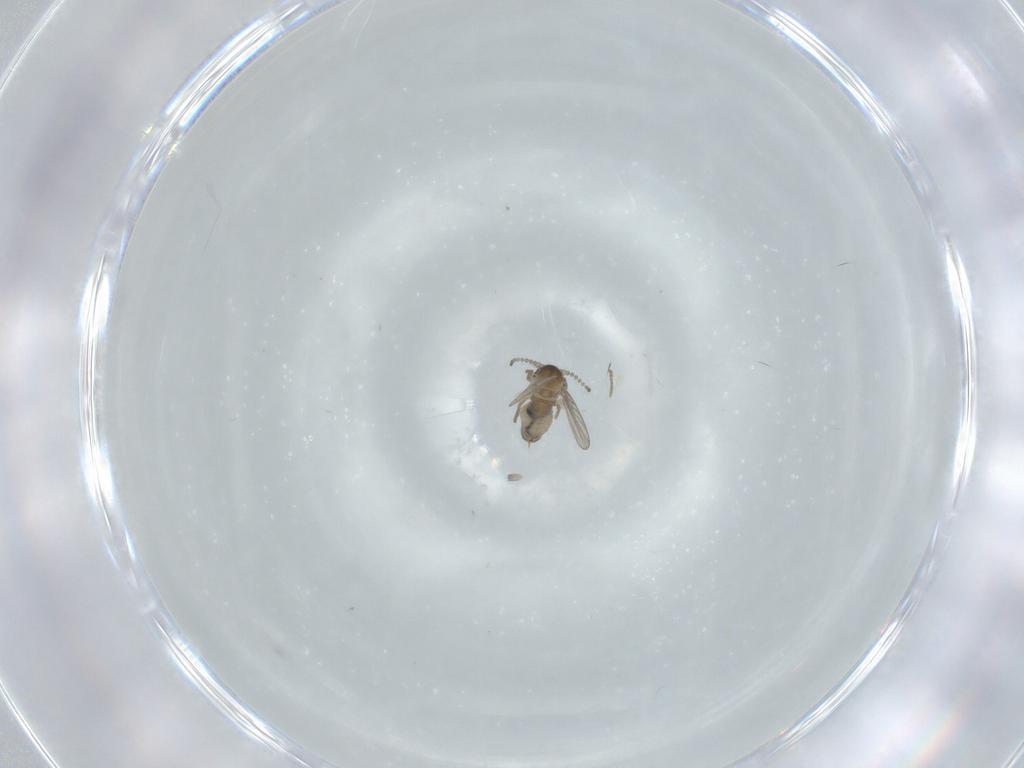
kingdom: Animalia
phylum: Arthropoda
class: Insecta
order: Diptera
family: Psychodidae
